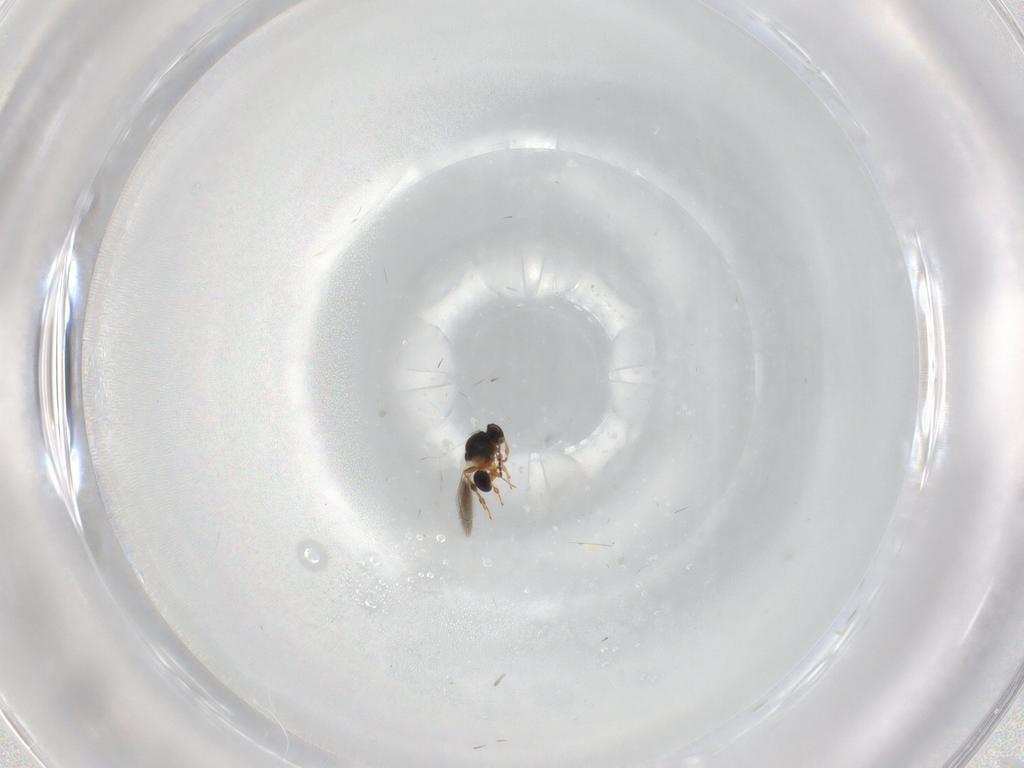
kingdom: Animalia
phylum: Arthropoda
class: Insecta
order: Hymenoptera
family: Platygastridae
